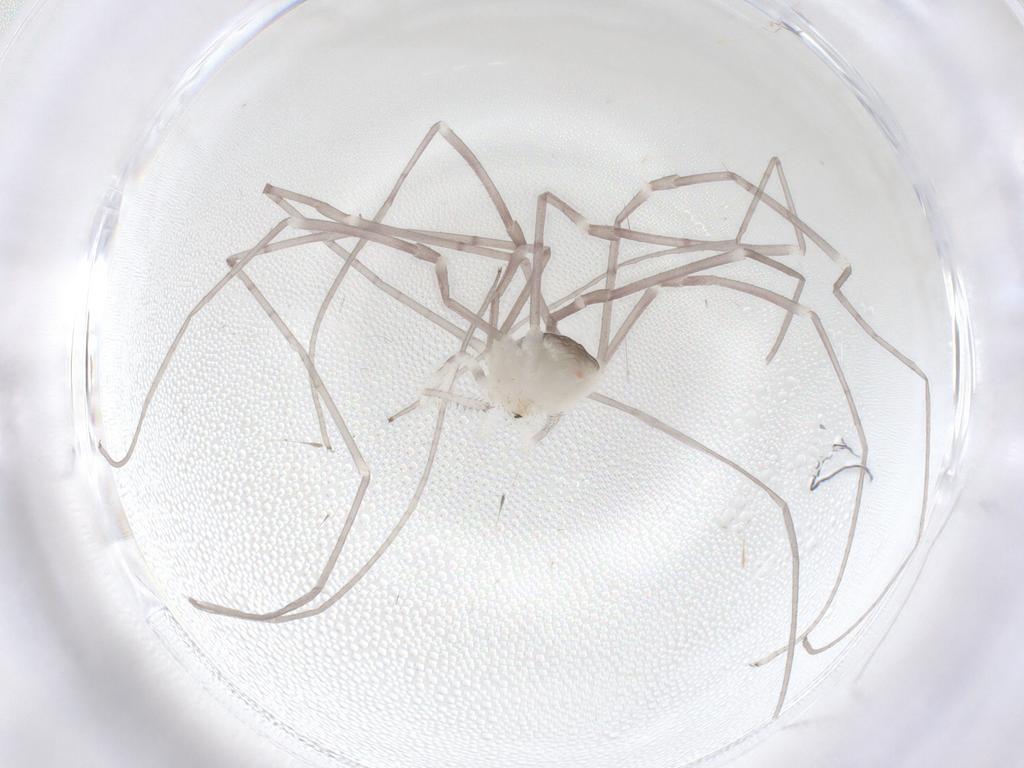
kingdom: Animalia
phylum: Arthropoda
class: Arachnida
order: Opiliones
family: Sclerosomatidae
